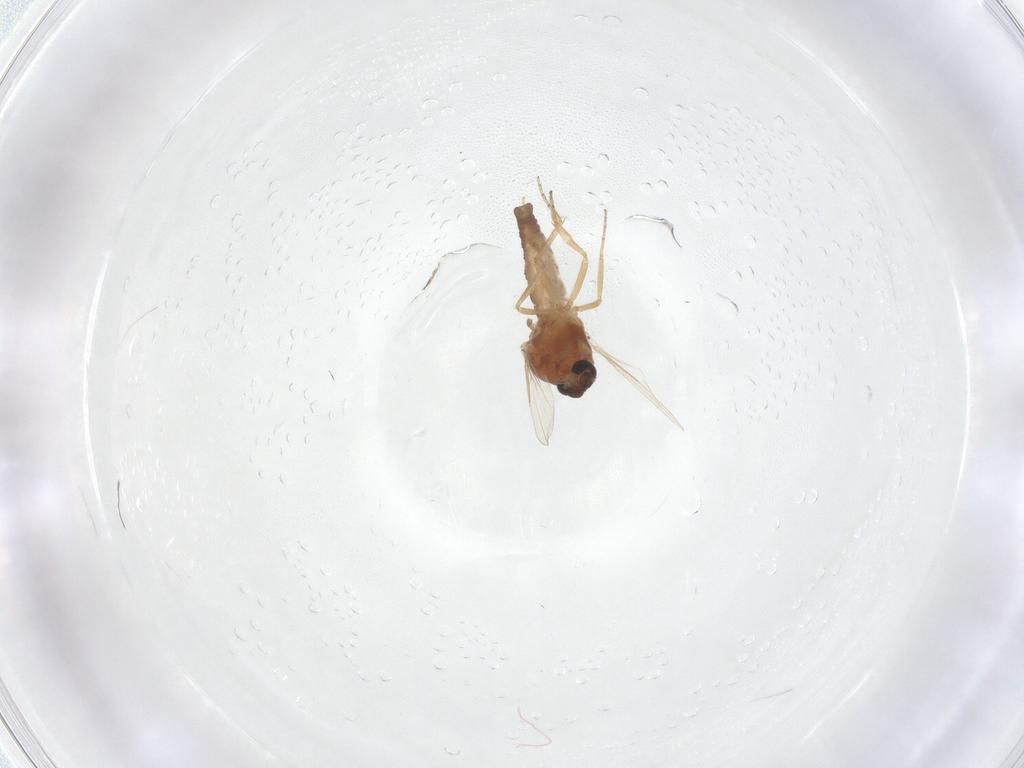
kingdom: Animalia
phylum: Arthropoda
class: Insecta
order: Diptera
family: Ceratopogonidae
